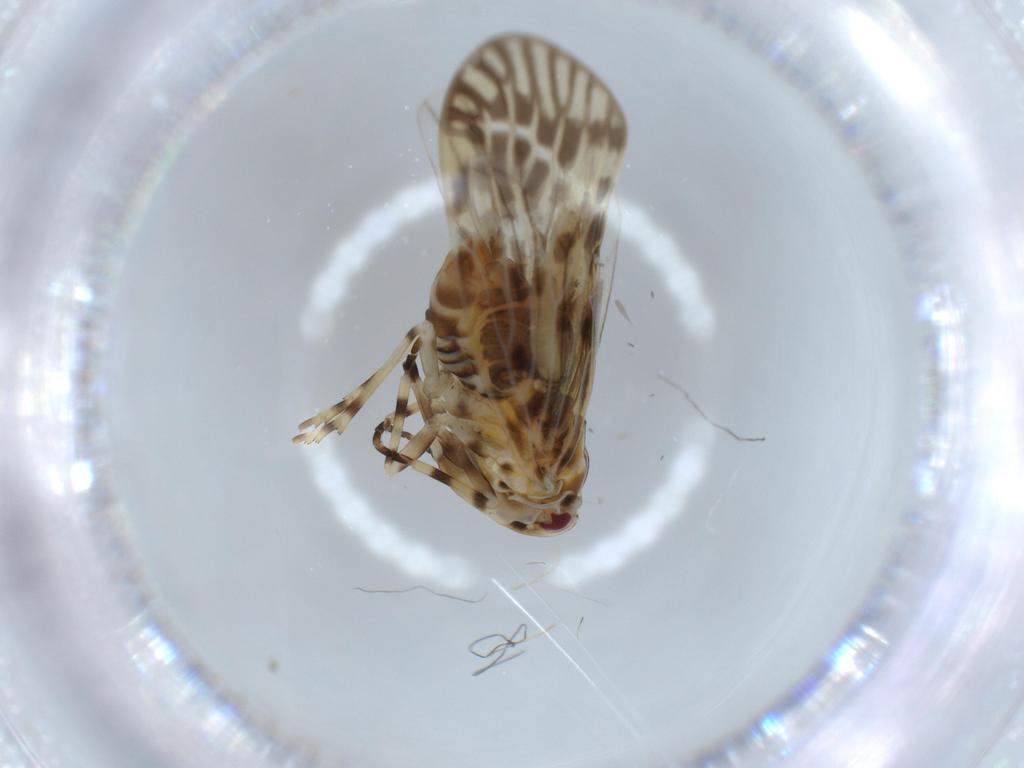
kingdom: Animalia
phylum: Arthropoda
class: Insecta
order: Hemiptera
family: Derbidae
